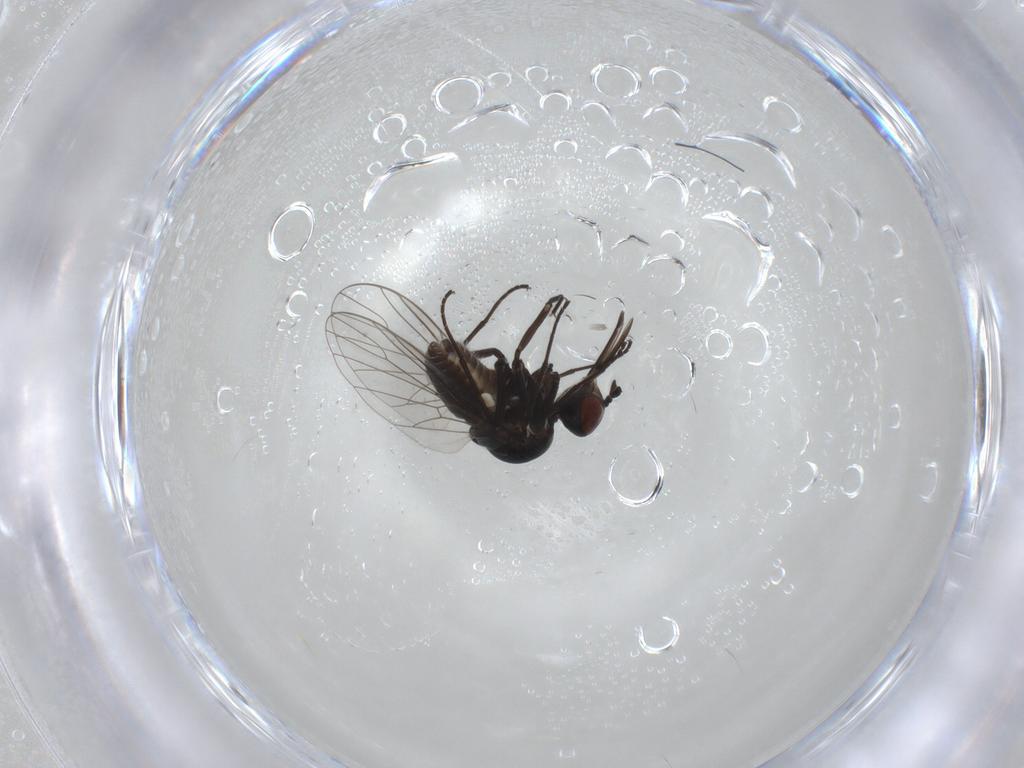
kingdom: Animalia
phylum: Arthropoda
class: Insecta
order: Diptera
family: Bombyliidae
